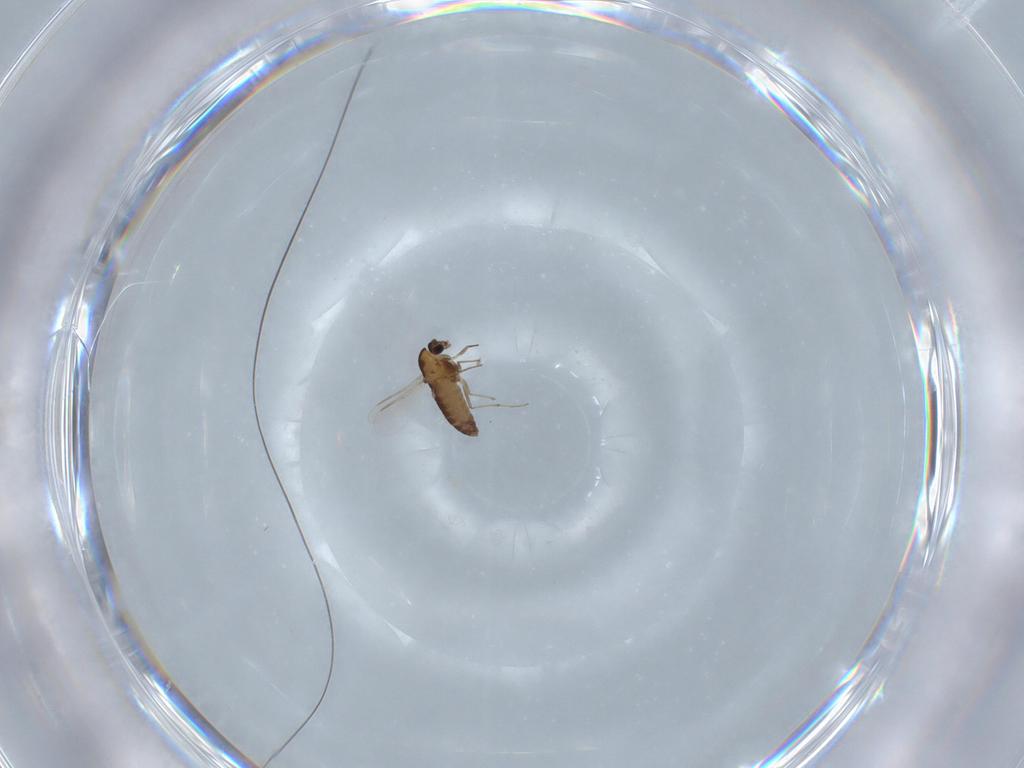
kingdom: Animalia
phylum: Arthropoda
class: Insecta
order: Diptera
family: Chironomidae
